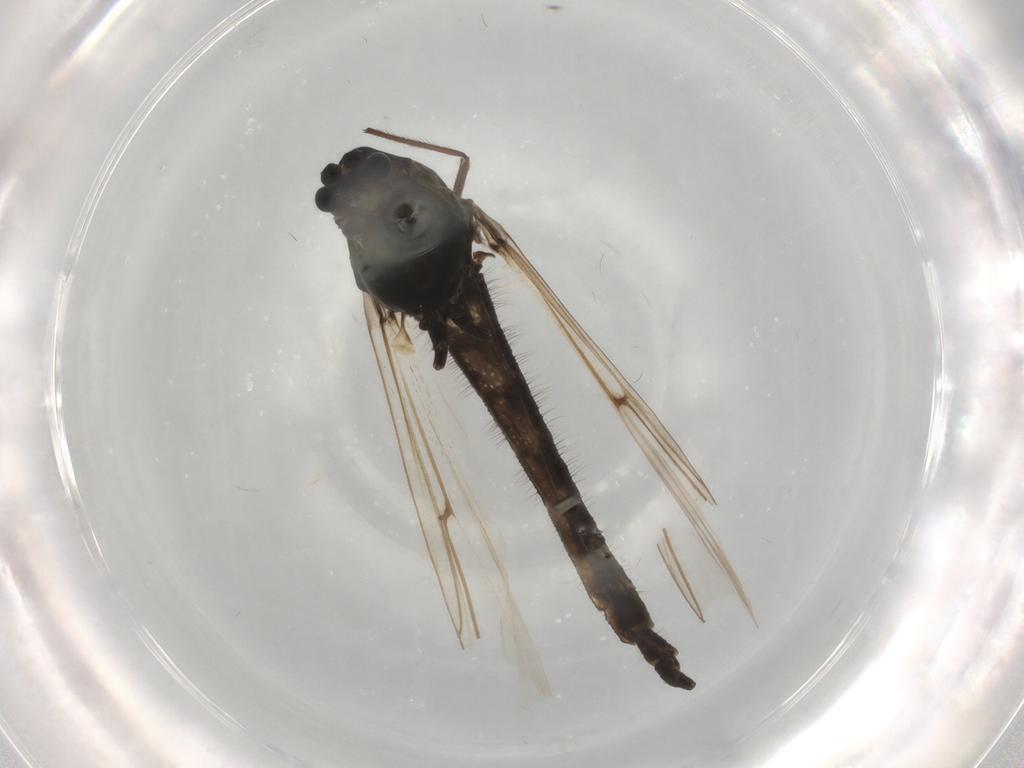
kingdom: Animalia
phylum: Arthropoda
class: Insecta
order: Diptera
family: Chironomidae
